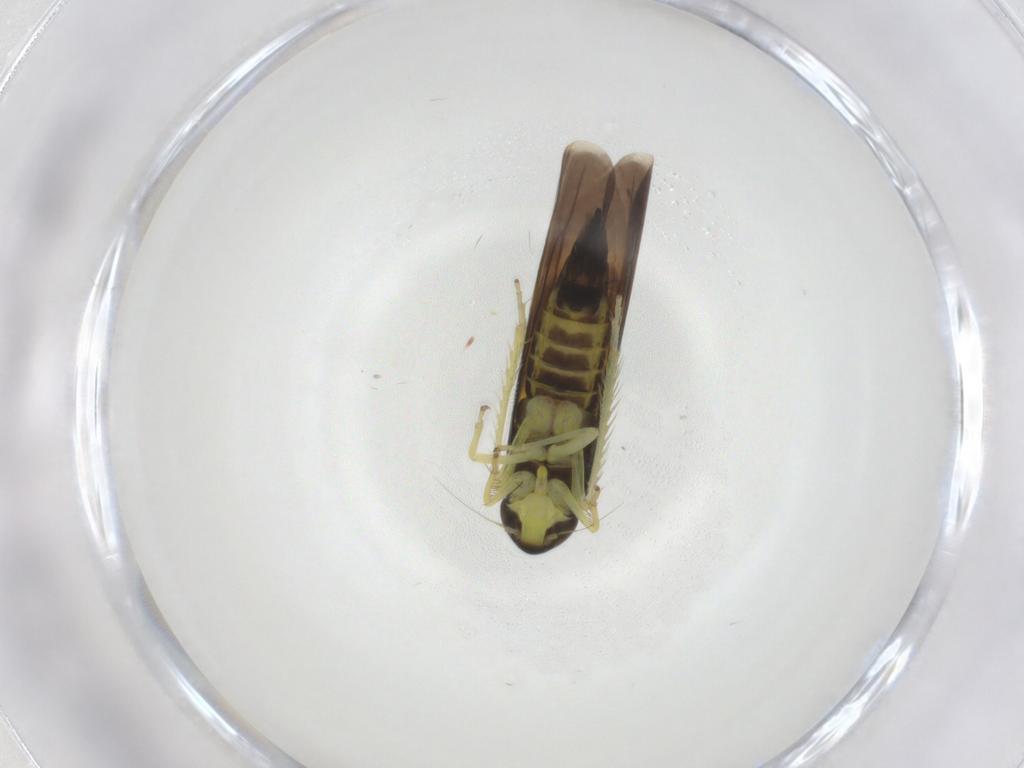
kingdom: Animalia
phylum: Arthropoda
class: Insecta
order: Hemiptera
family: Cicadellidae
